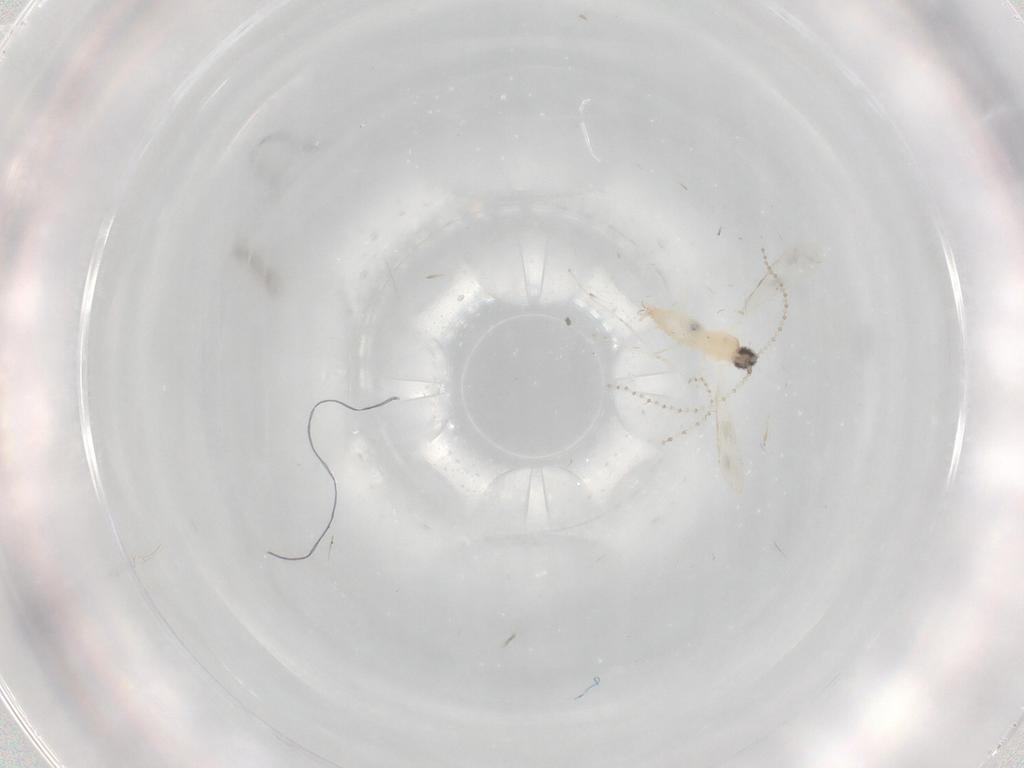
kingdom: Animalia
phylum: Arthropoda
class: Insecta
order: Diptera
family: Cecidomyiidae
